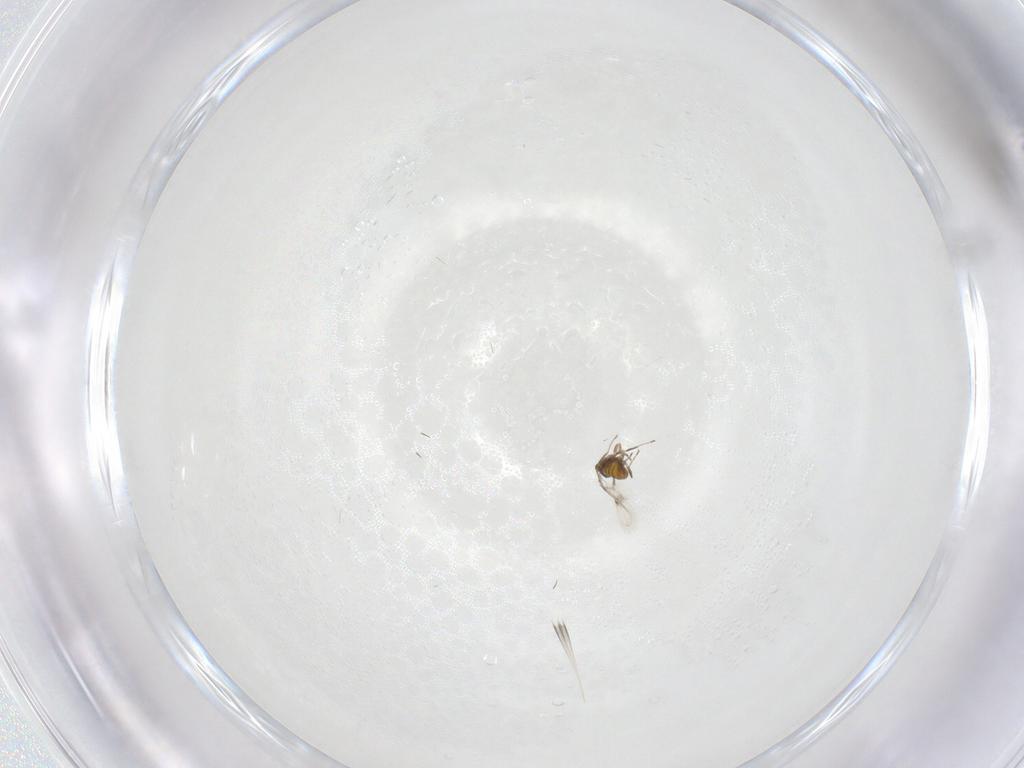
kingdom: Animalia
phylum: Arthropoda
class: Insecta
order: Hymenoptera
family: Trichogrammatidae
